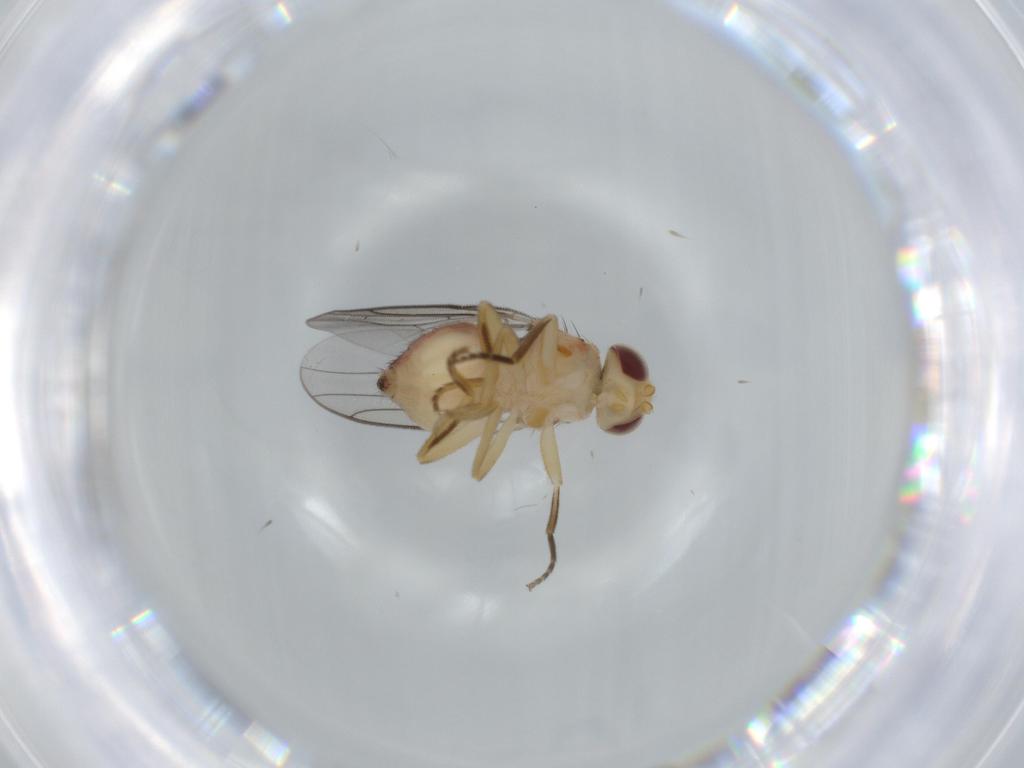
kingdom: Animalia
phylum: Arthropoda
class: Insecta
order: Diptera
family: Chloropidae
